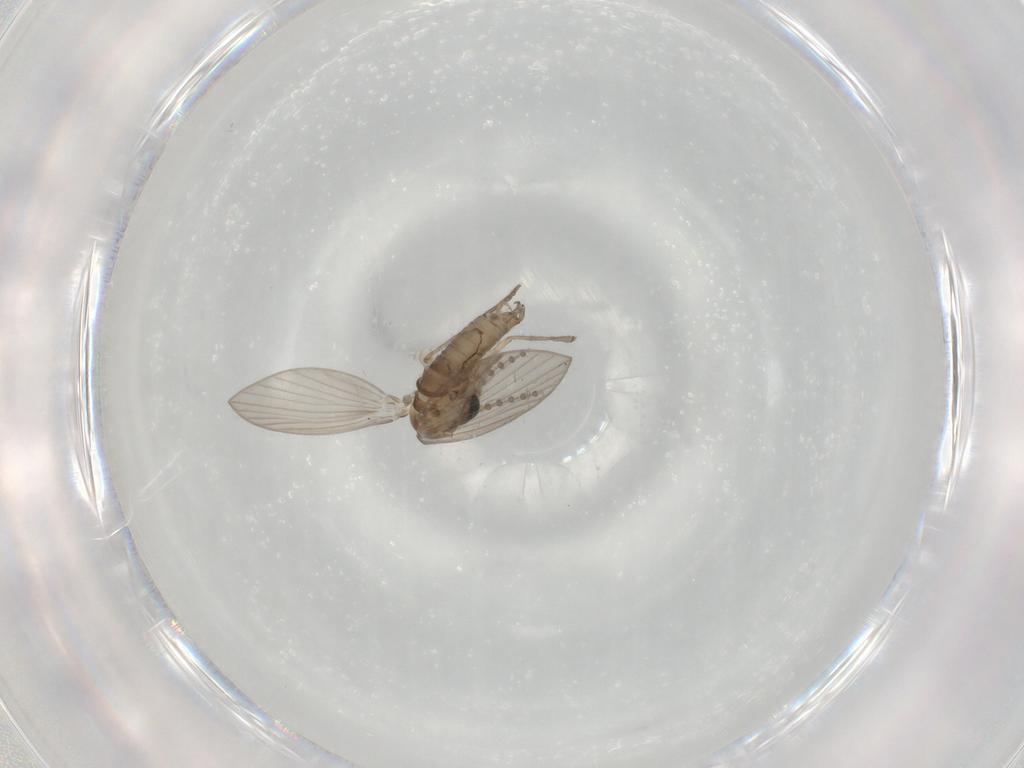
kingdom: Animalia
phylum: Arthropoda
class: Insecta
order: Diptera
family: Psychodidae
